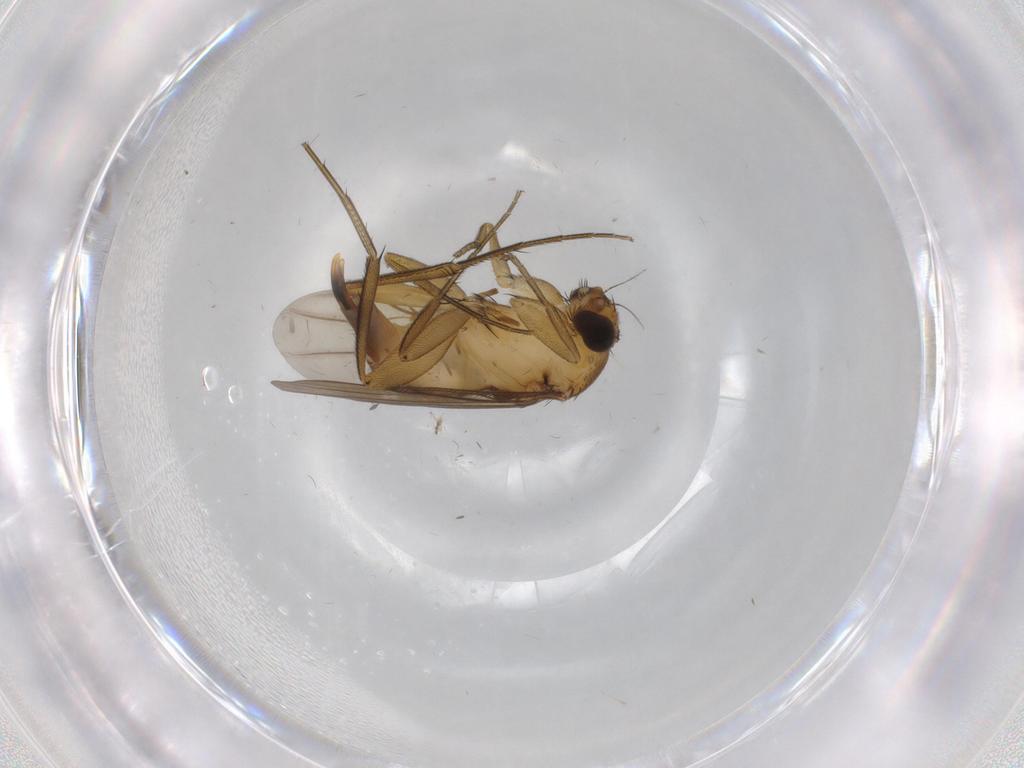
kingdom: Animalia
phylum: Arthropoda
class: Insecta
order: Diptera
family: Phoridae
